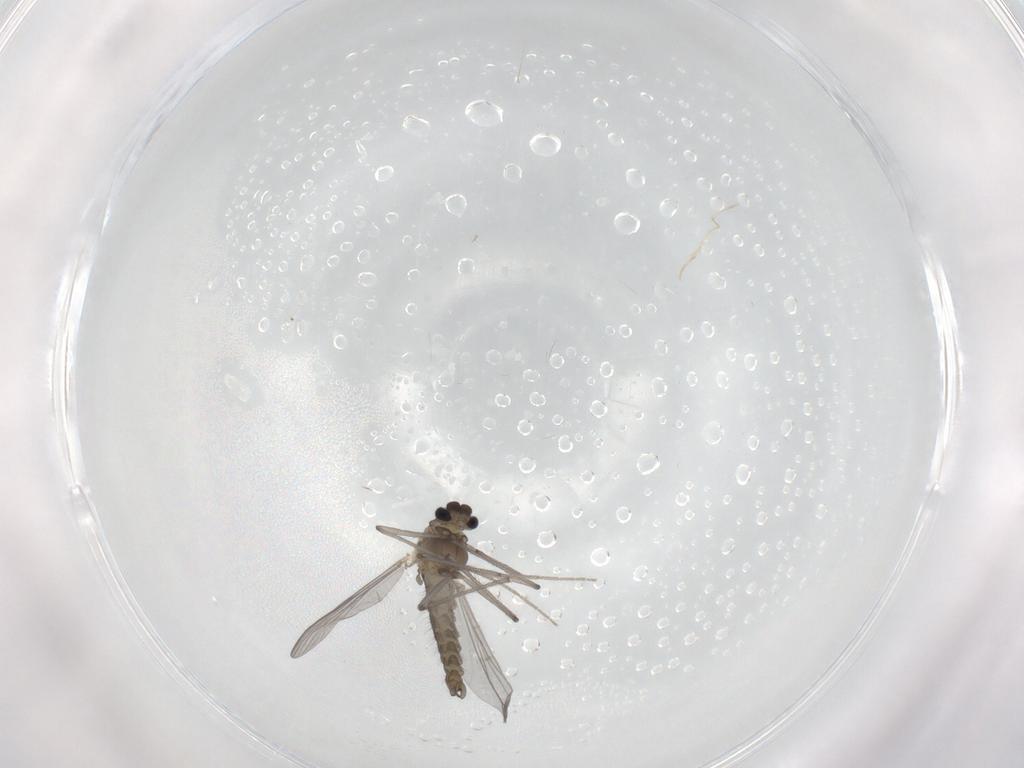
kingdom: Animalia
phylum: Arthropoda
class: Insecta
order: Diptera
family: Chironomidae
